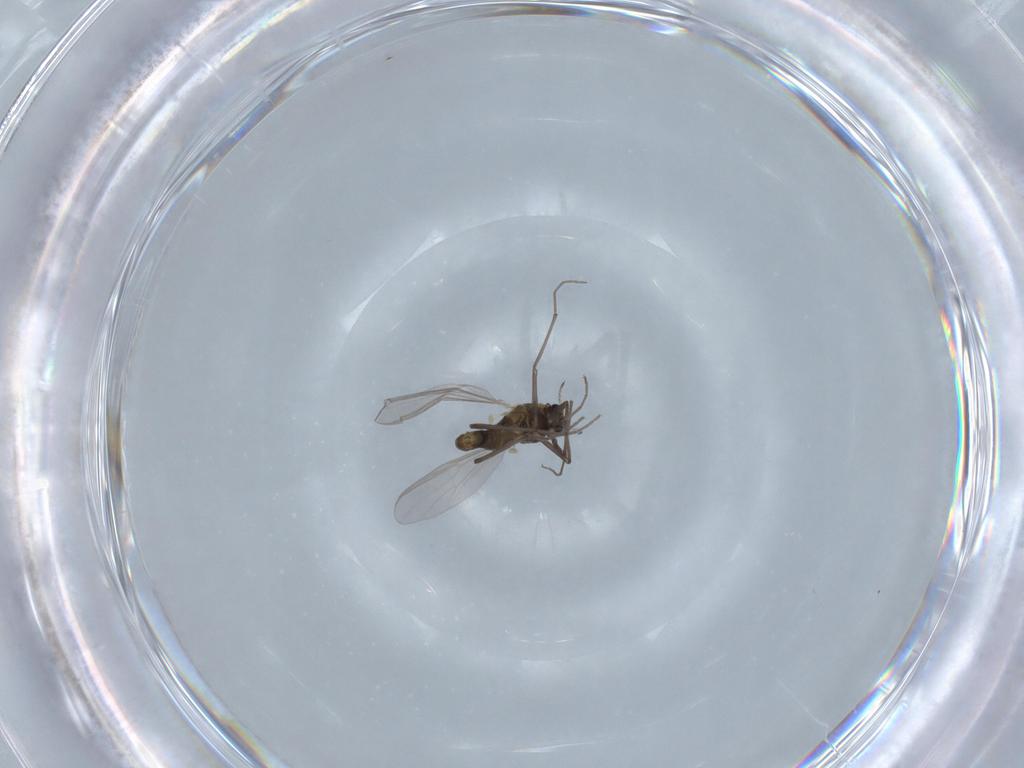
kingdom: Animalia
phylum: Arthropoda
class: Insecta
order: Diptera
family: Chironomidae
